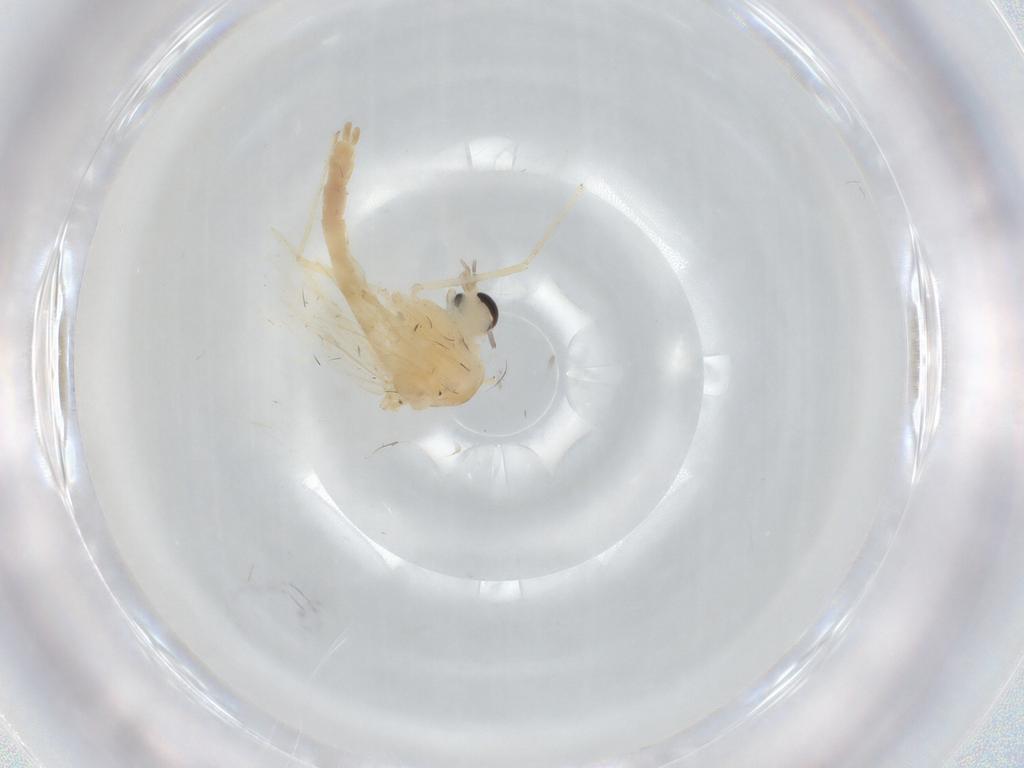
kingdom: Animalia
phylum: Arthropoda
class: Insecta
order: Diptera
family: Chironomidae
